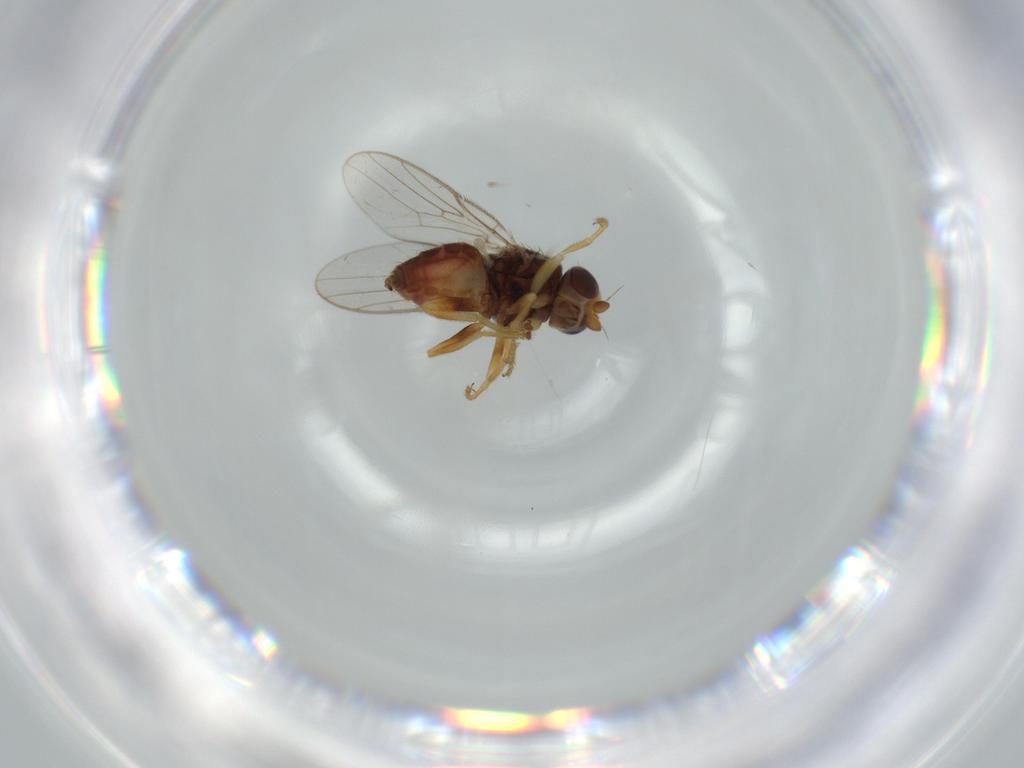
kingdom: Animalia
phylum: Arthropoda
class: Insecta
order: Diptera
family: Chloropidae
